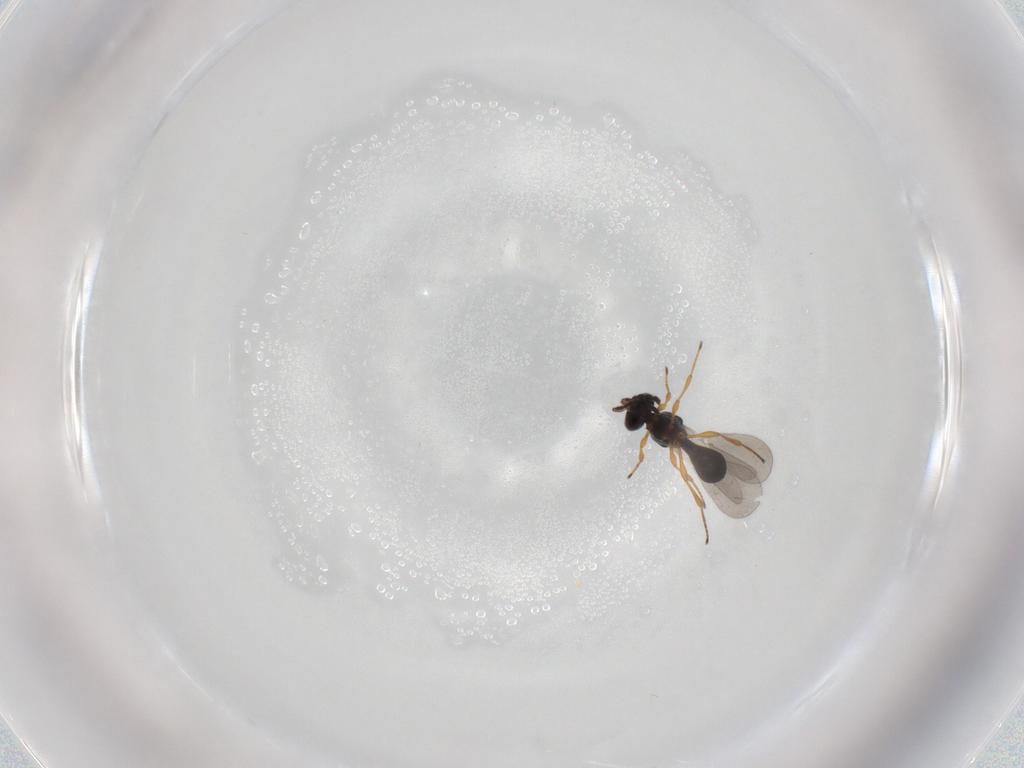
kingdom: Animalia
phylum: Arthropoda
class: Insecta
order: Hymenoptera
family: Platygastridae
